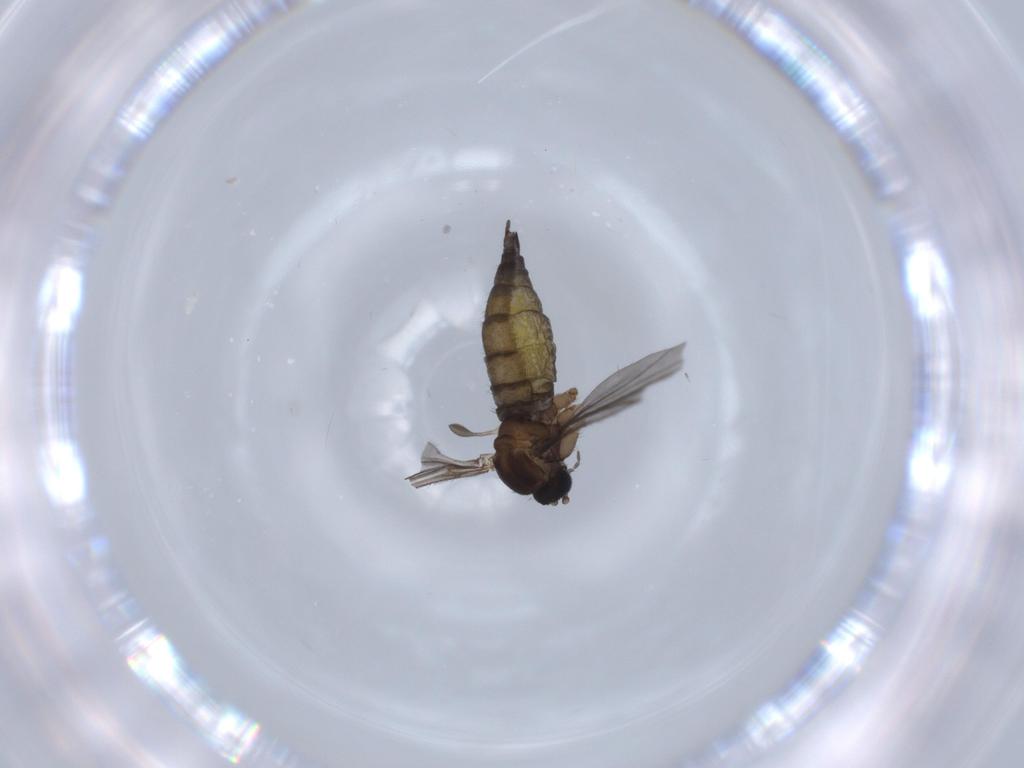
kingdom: Animalia
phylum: Arthropoda
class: Insecta
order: Diptera
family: Sciaridae
